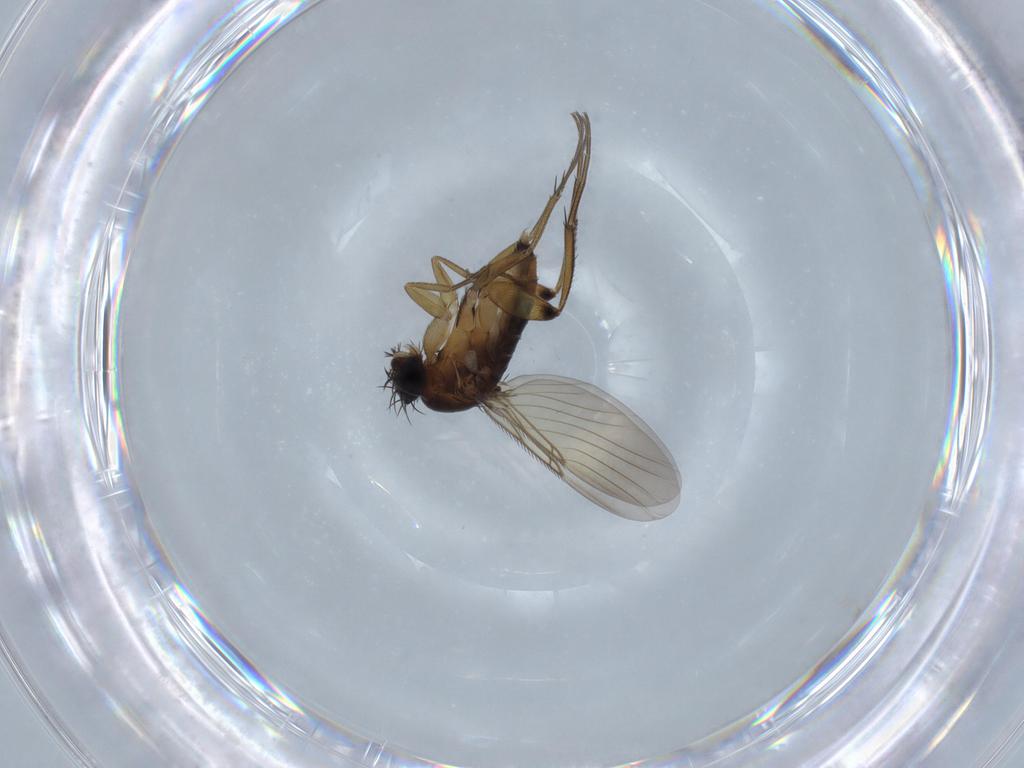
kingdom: Animalia
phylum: Arthropoda
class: Insecta
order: Diptera
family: Phoridae
